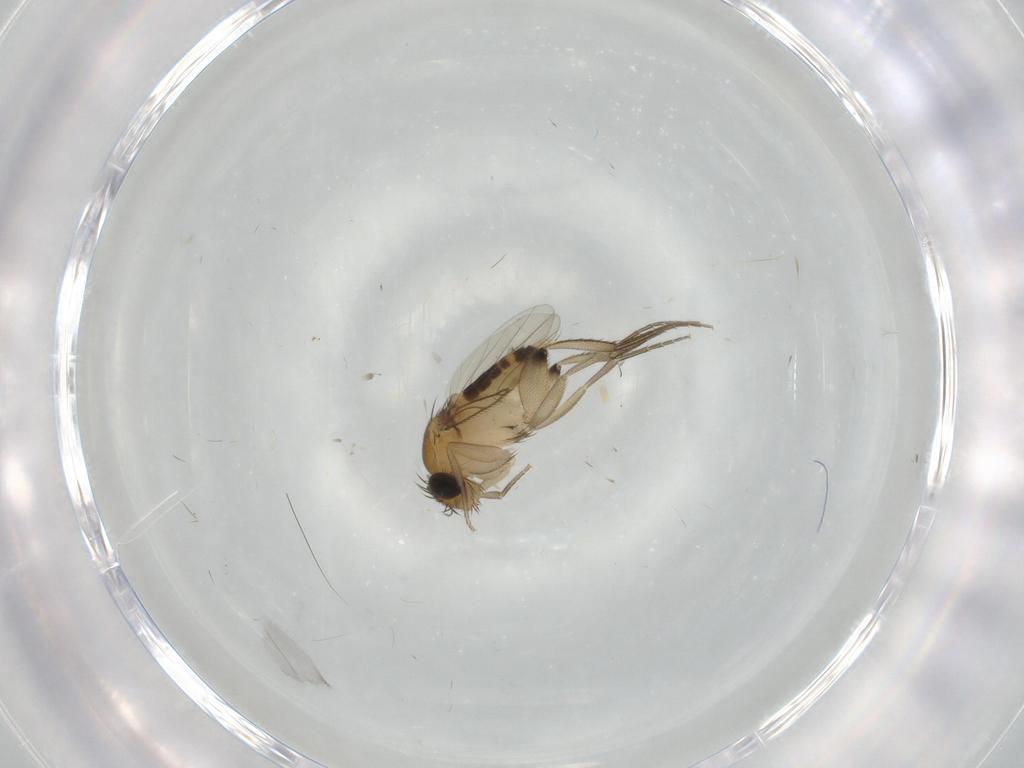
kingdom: Animalia
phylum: Arthropoda
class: Insecta
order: Diptera
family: Phoridae
